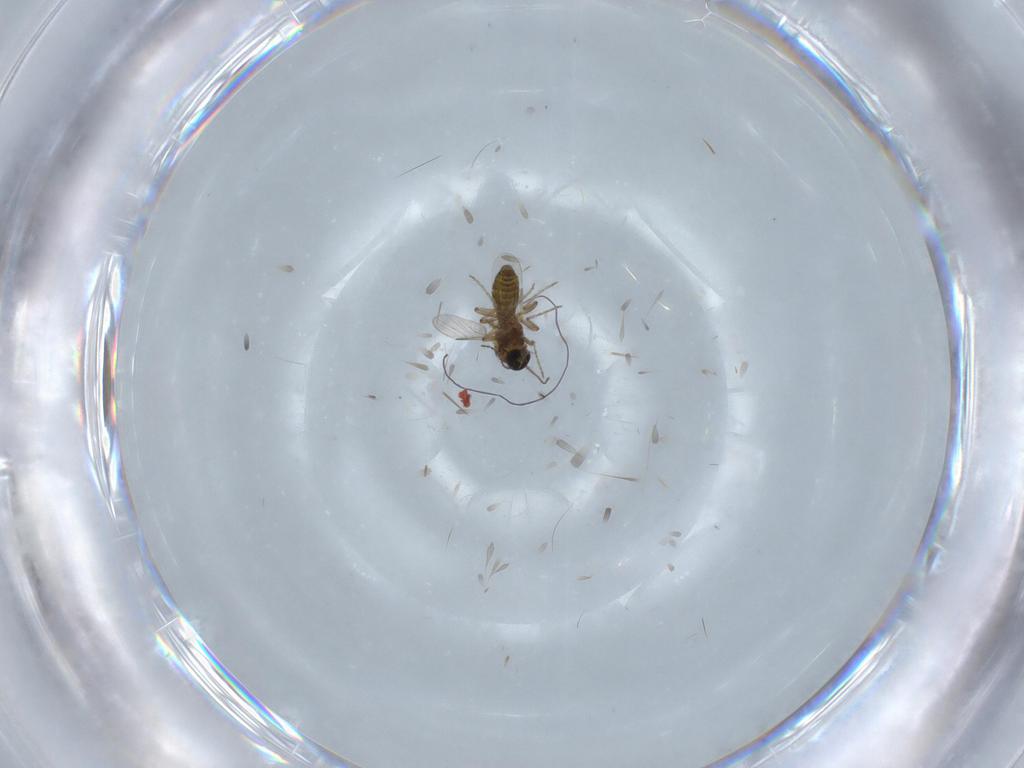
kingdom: Animalia
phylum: Arthropoda
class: Insecta
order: Diptera
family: Ceratopogonidae
